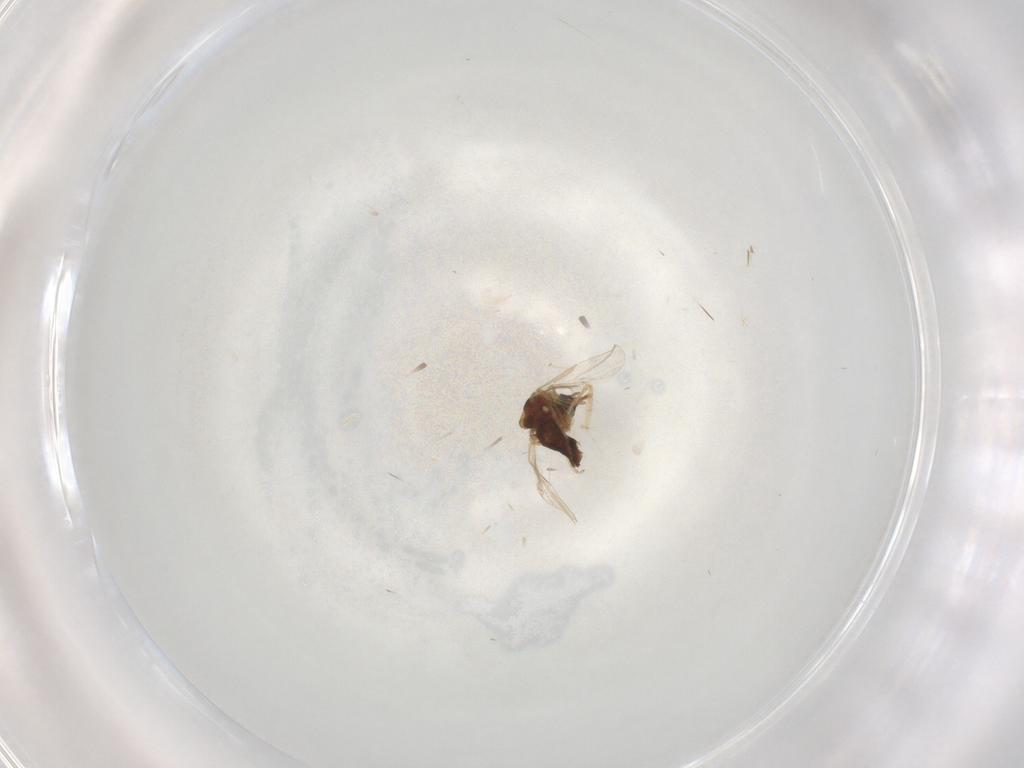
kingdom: Animalia
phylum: Arthropoda
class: Insecta
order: Diptera
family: Ceratopogonidae
